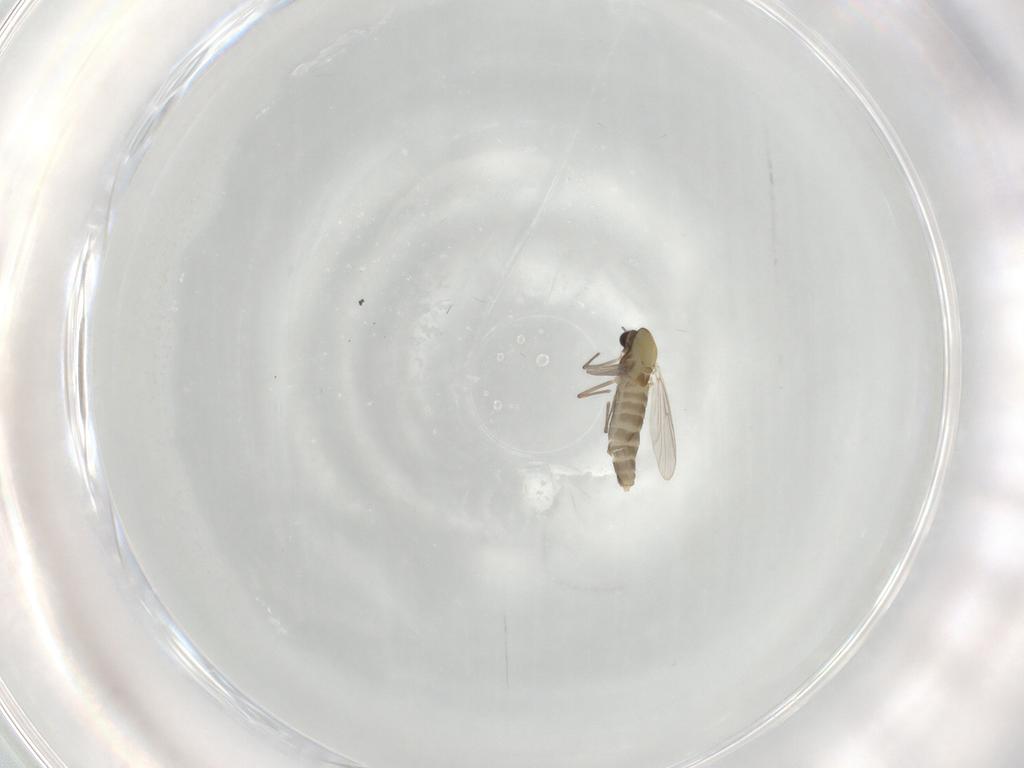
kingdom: Animalia
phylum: Arthropoda
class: Insecta
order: Diptera
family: Chironomidae
